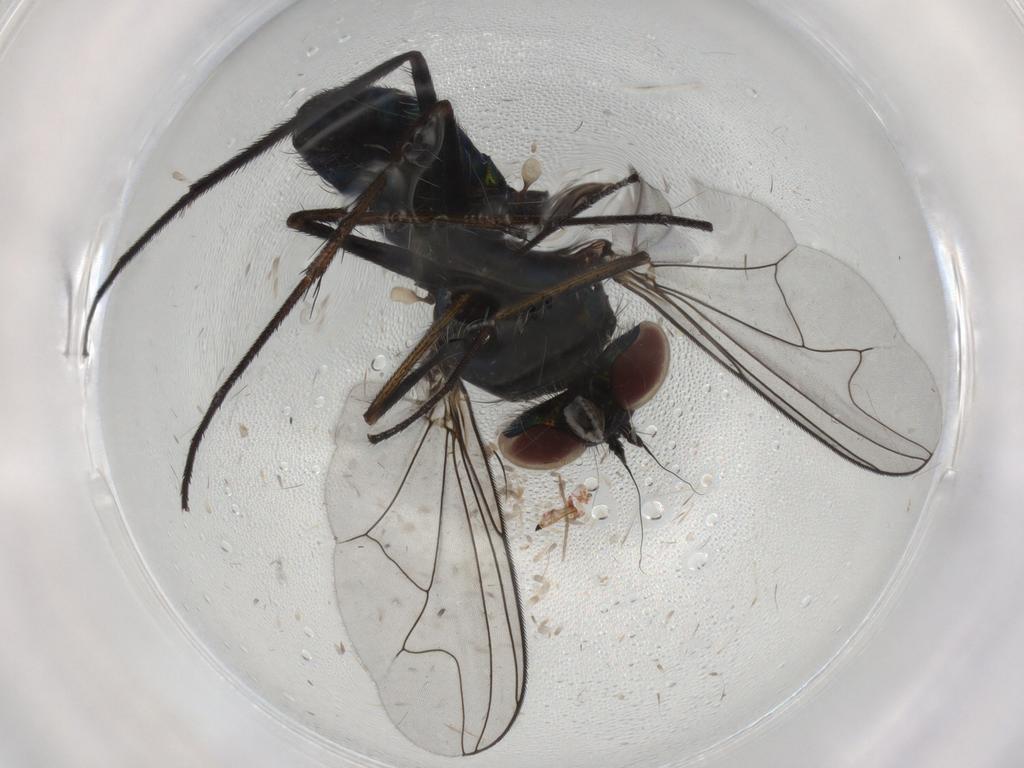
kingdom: Animalia
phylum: Arthropoda
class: Insecta
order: Diptera
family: Dolichopodidae
